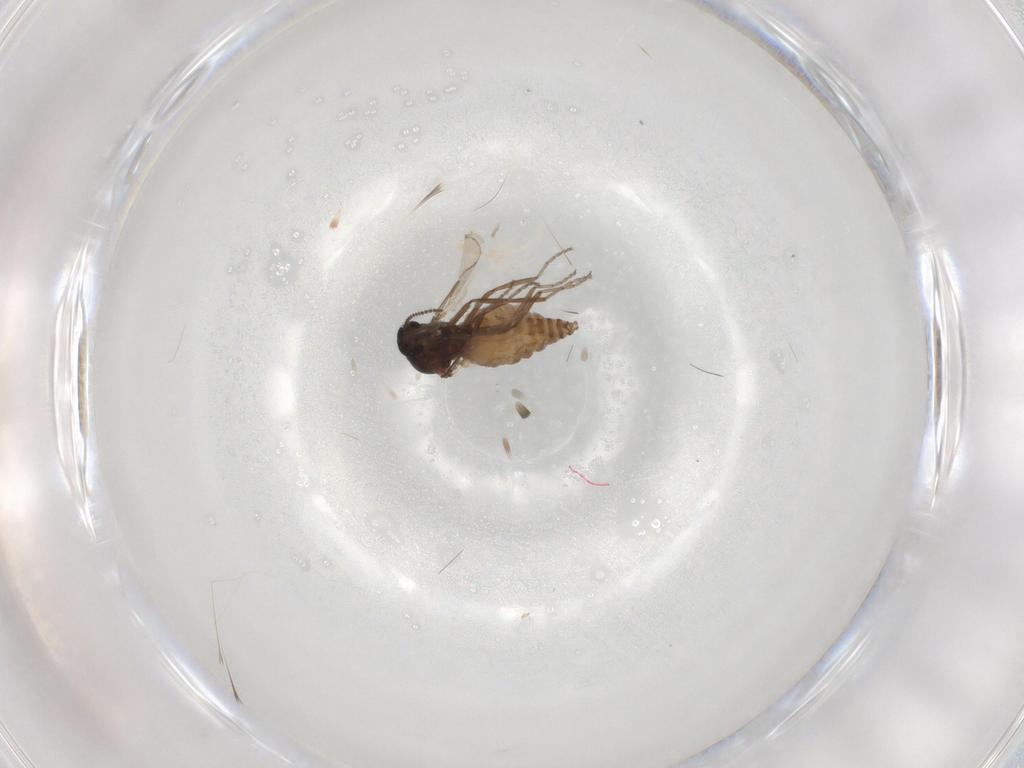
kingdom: Animalia
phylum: Arthropoda
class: Insecta
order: Diptera
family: Ceratopogonidae
